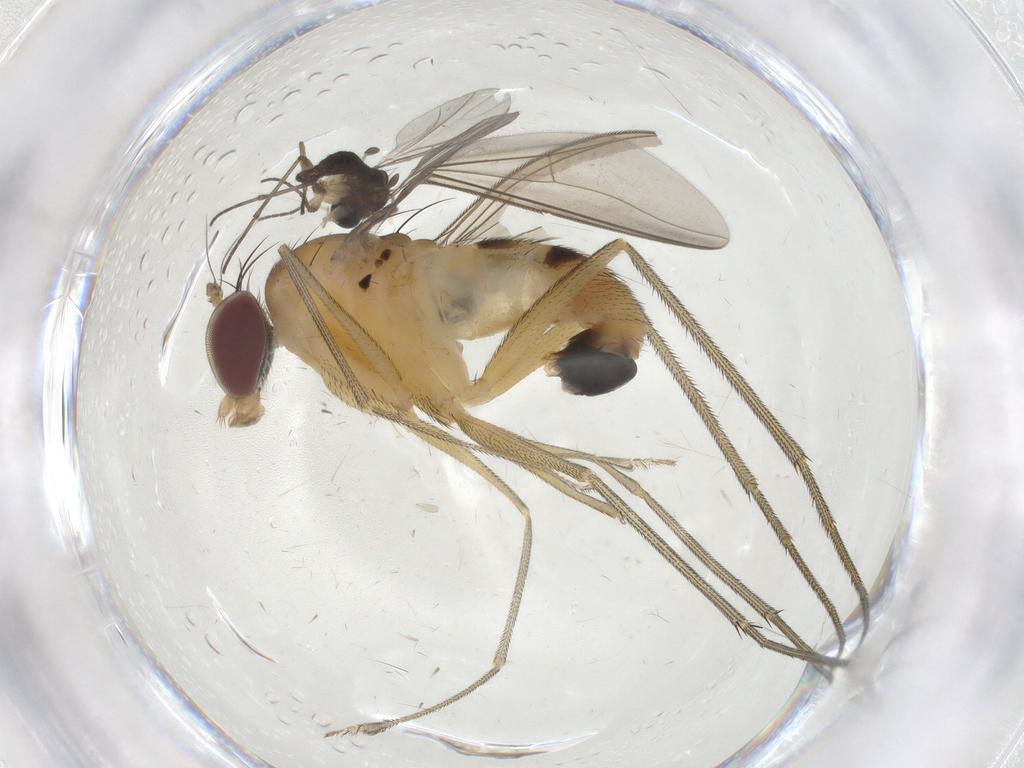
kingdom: Animalia
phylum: Arthropoda
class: Insecta
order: Diptera
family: Dolichopodidae
